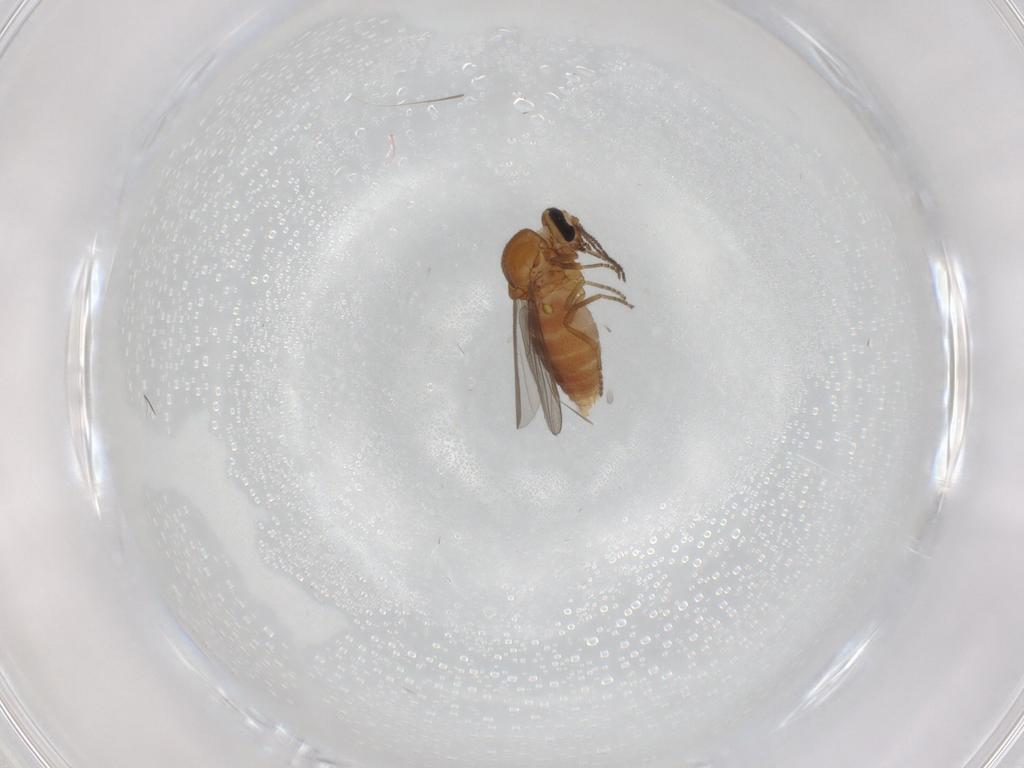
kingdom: Animalia
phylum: Arthropoda
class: Insecta
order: Diptera
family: Ceratopogonidae
